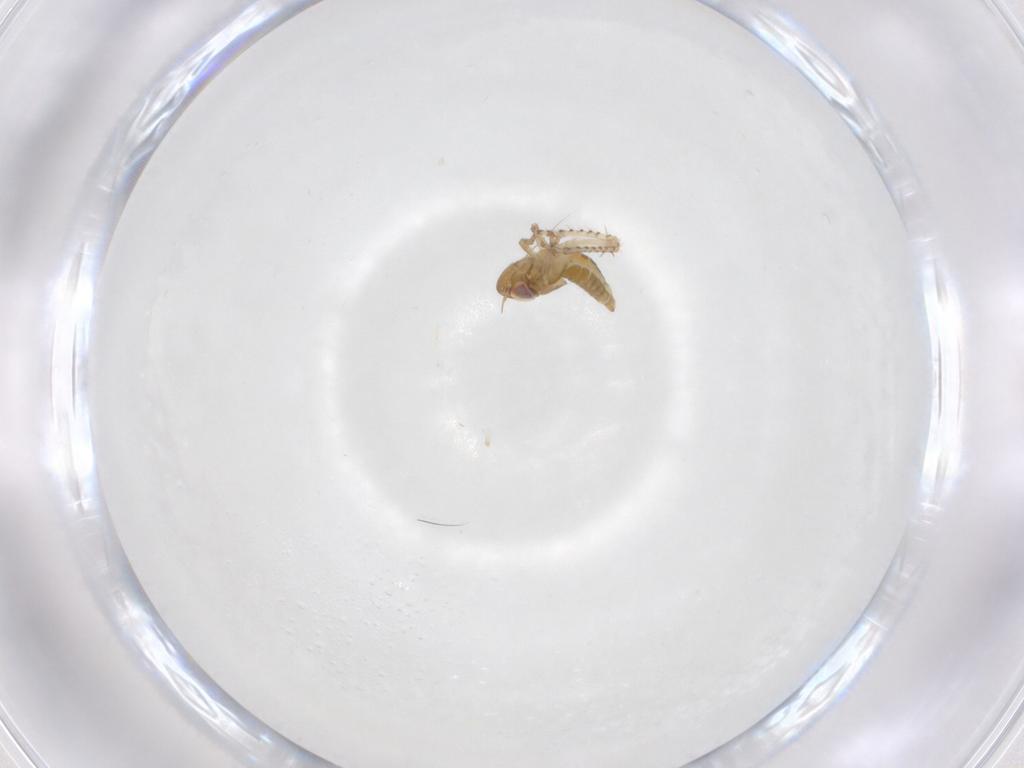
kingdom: Animalia
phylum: Arthropoda
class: Insecta
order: Hemiptera
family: Cicadellidae
